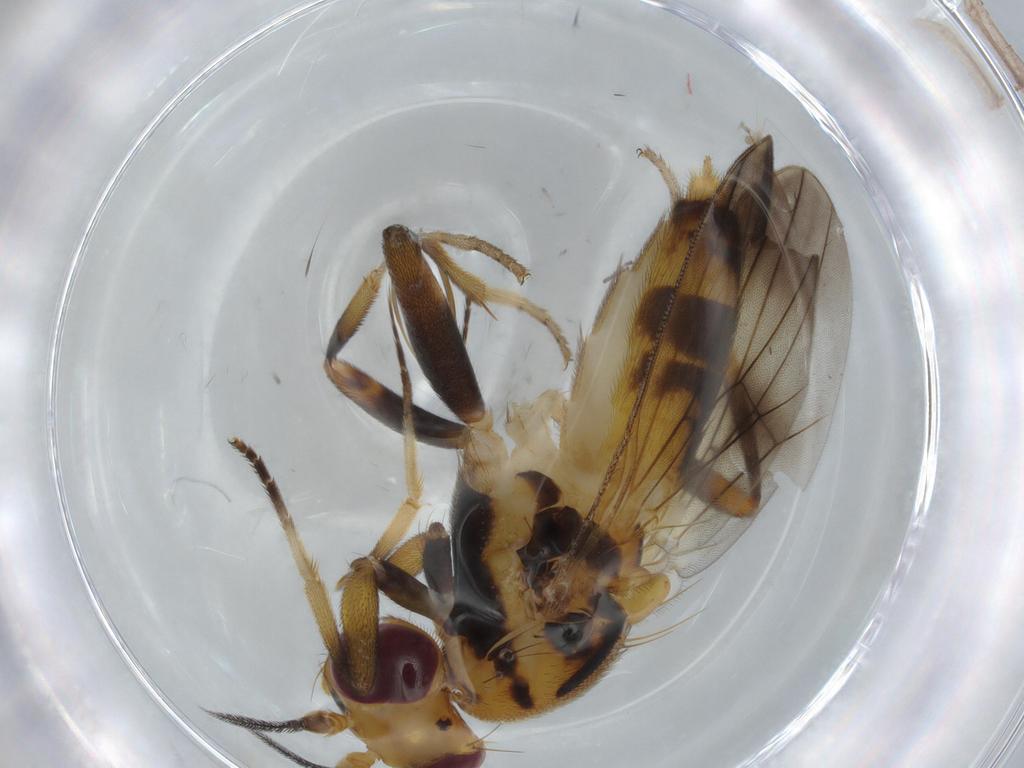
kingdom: Animalia
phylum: Arthropoda
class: Insecta
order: Diptera
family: Clusiidae
